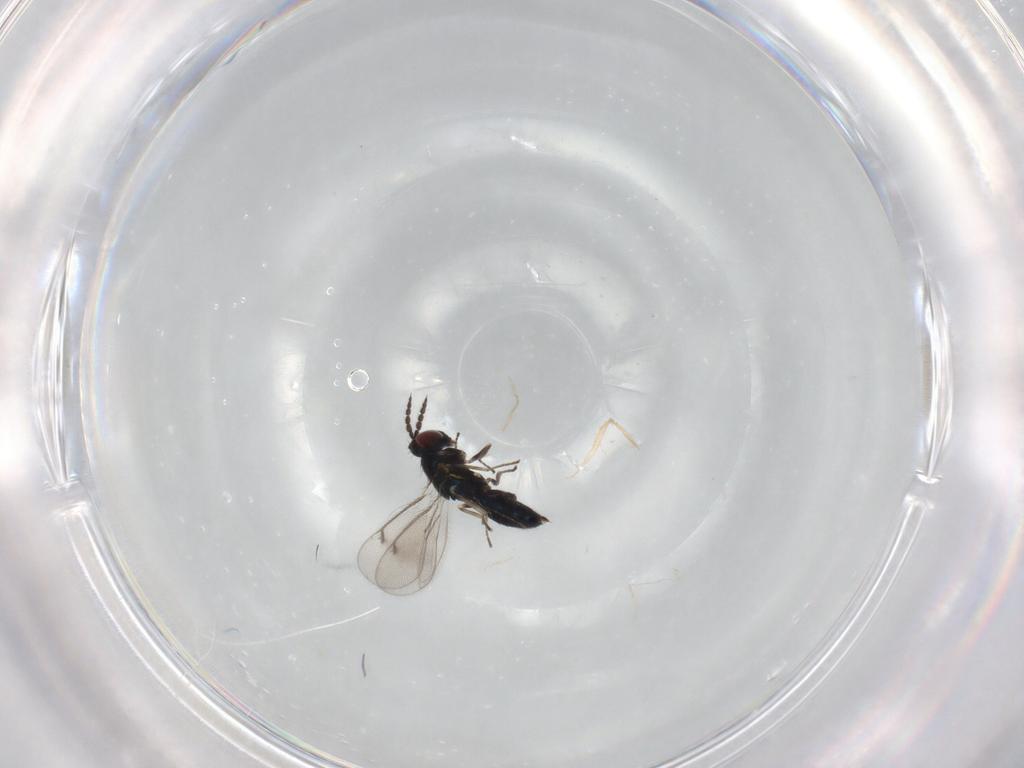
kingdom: Animalia
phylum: Arthropoda
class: Insecta
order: Hymenoptera
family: Eulophidae
